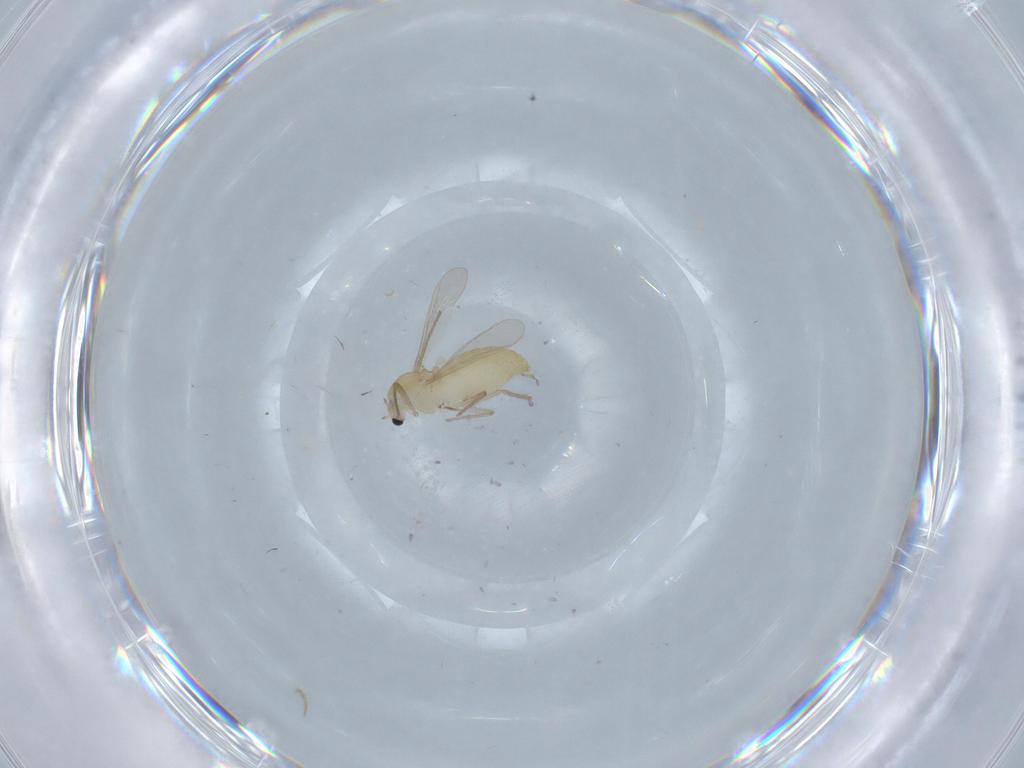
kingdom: Animalia
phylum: Arthropoda
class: Insecta
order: Diptera
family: Chironomidae
